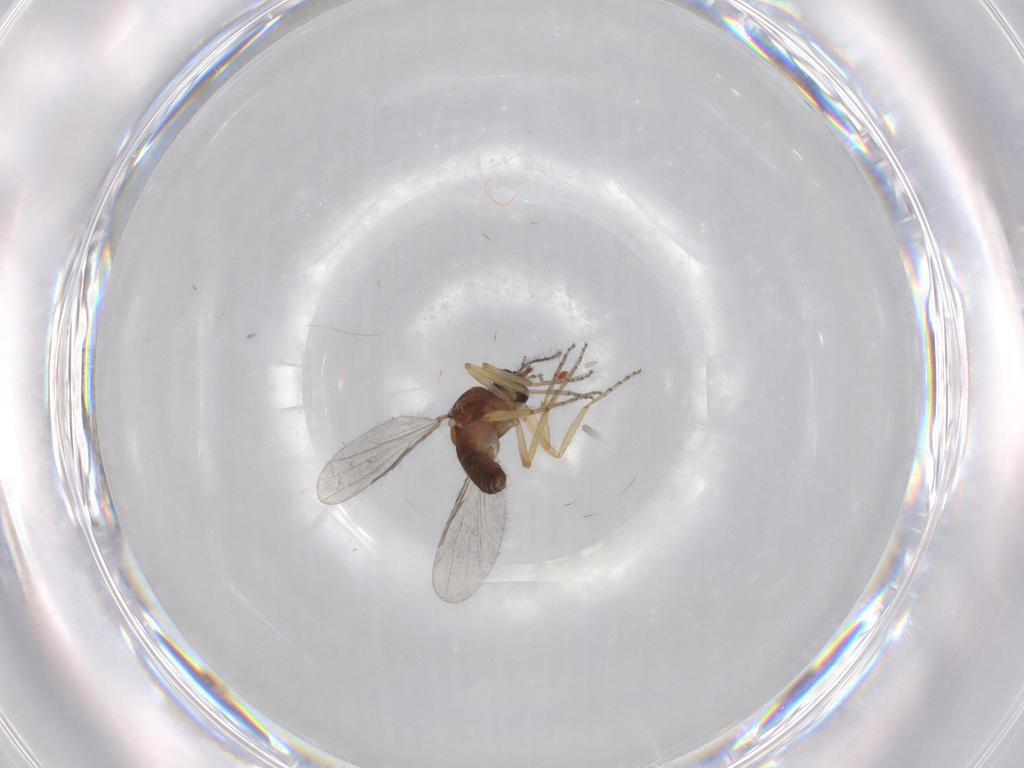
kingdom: Animalia
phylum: Arthropoda
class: Insecta
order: Diptera
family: Ceratopogonidae
